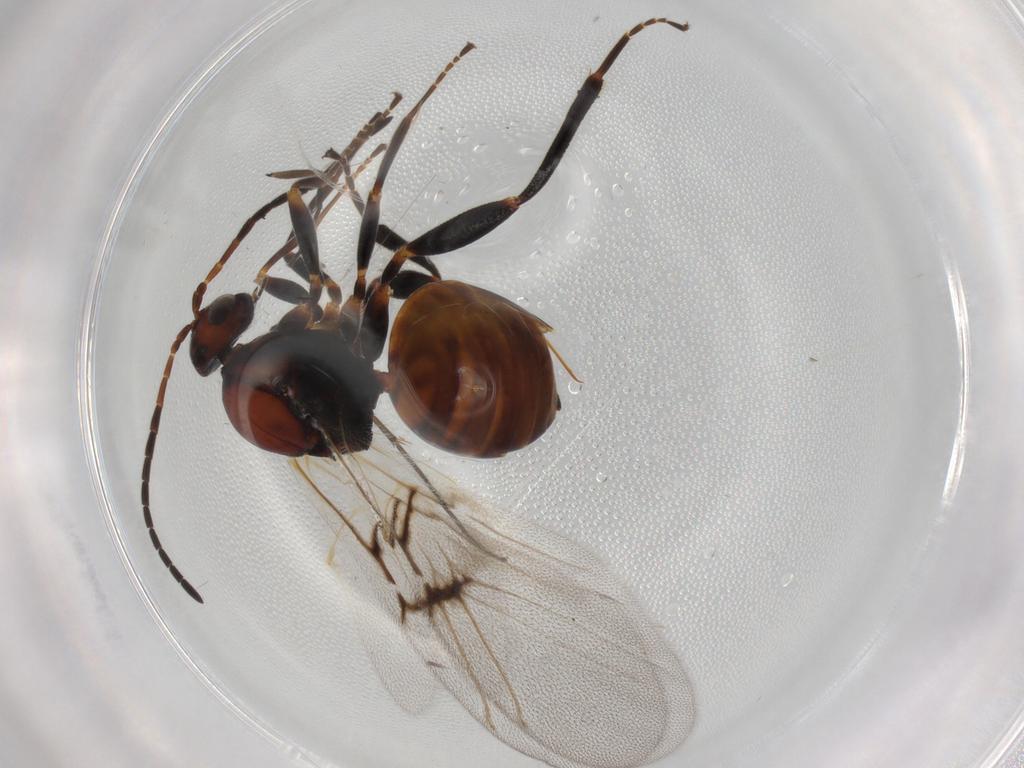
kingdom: Animalia
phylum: Arthropoda
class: Insecta
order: Hymenoptera
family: Cynipidae
